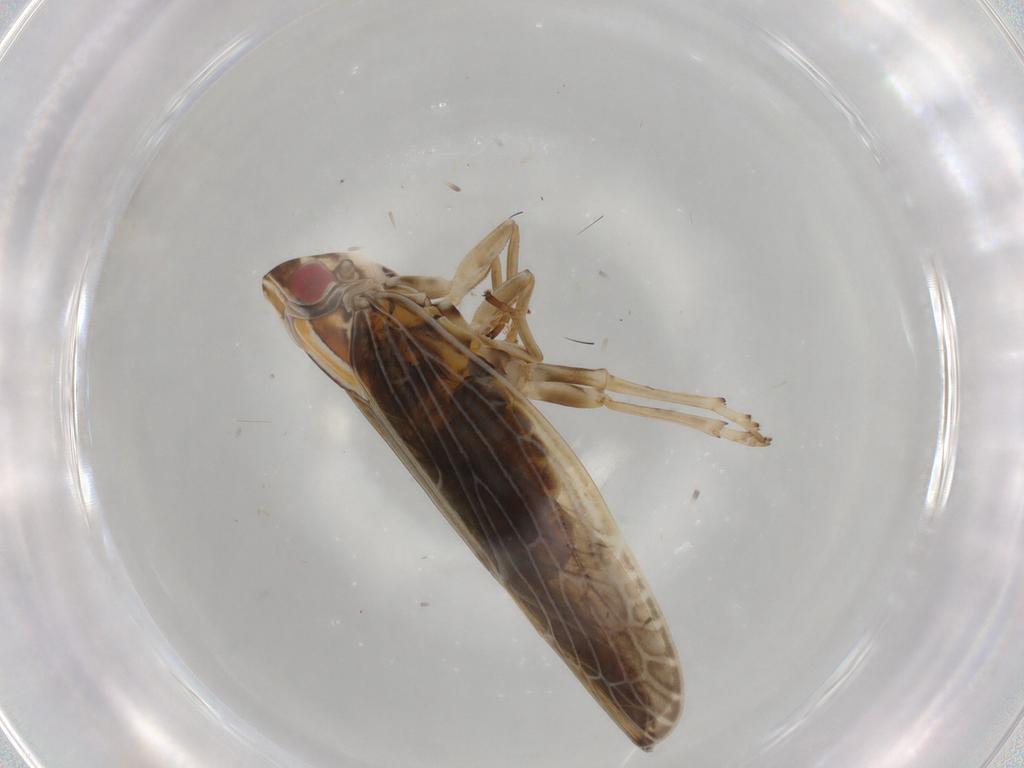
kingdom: Animalia
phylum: Arthropoda
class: Insecta
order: Hemiptera
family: Achilidae
